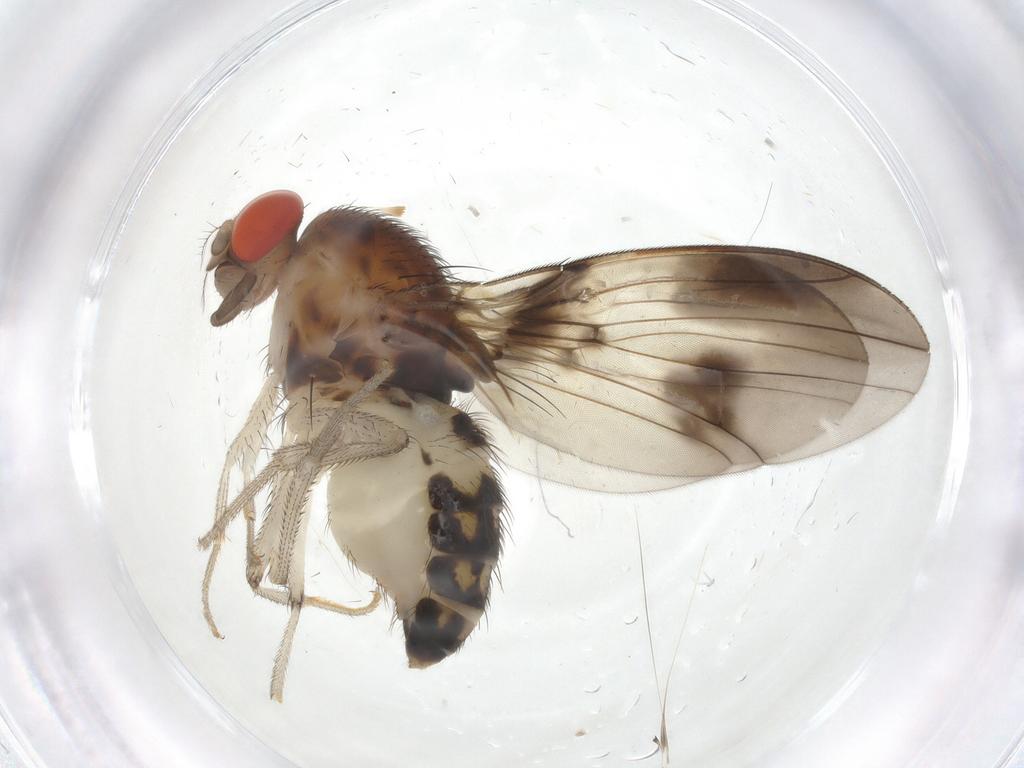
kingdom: Animalia
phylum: Arthropoda
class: Insecta
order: Diptera
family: Drosophilidae
